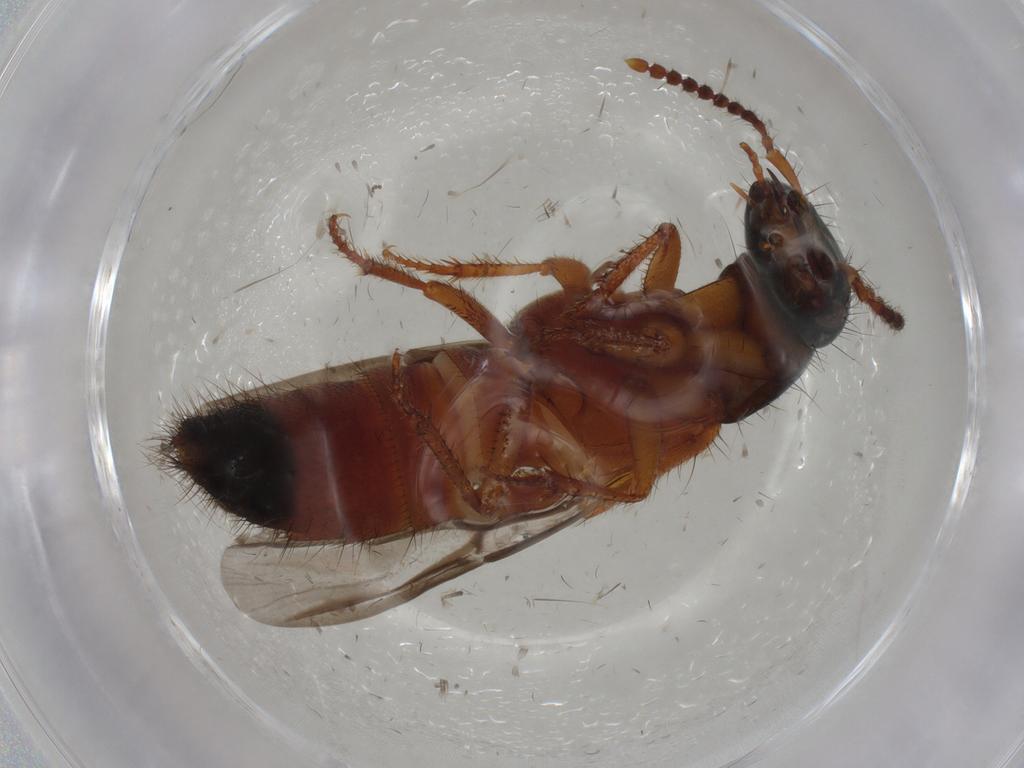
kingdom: Animalia
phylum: Arthropoda
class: Insecta
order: Coleoptera
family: Staphylinidae
